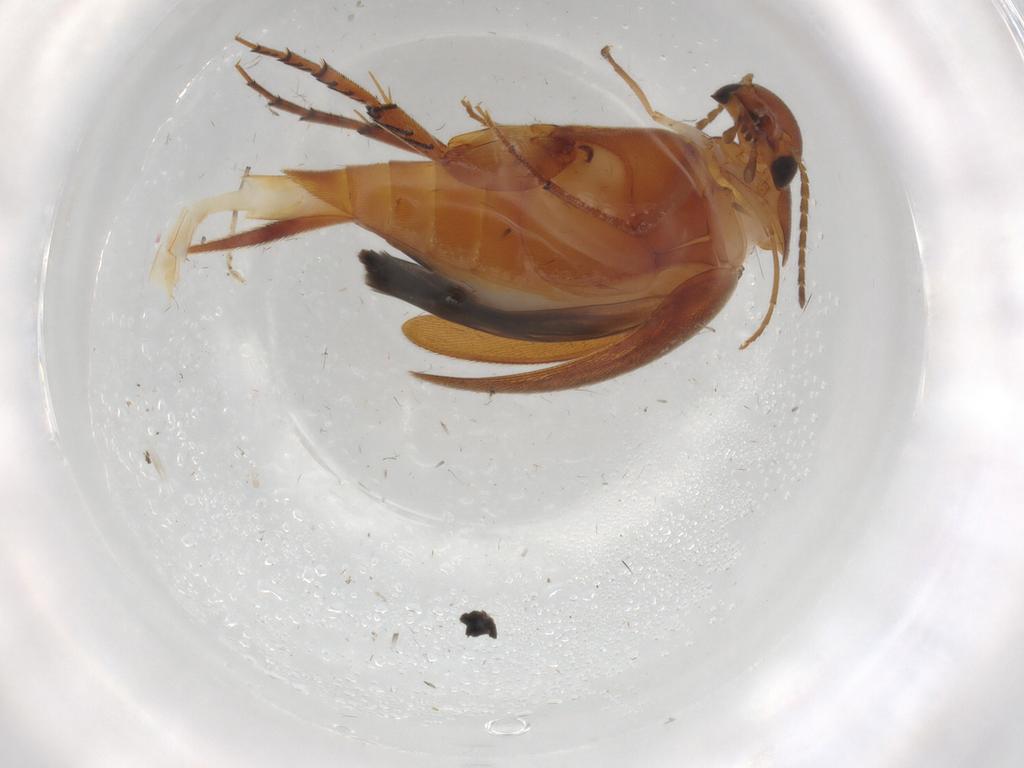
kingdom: Animalia
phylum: Arthropoda
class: Insecta
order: Coleoptera
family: Mordellidae
